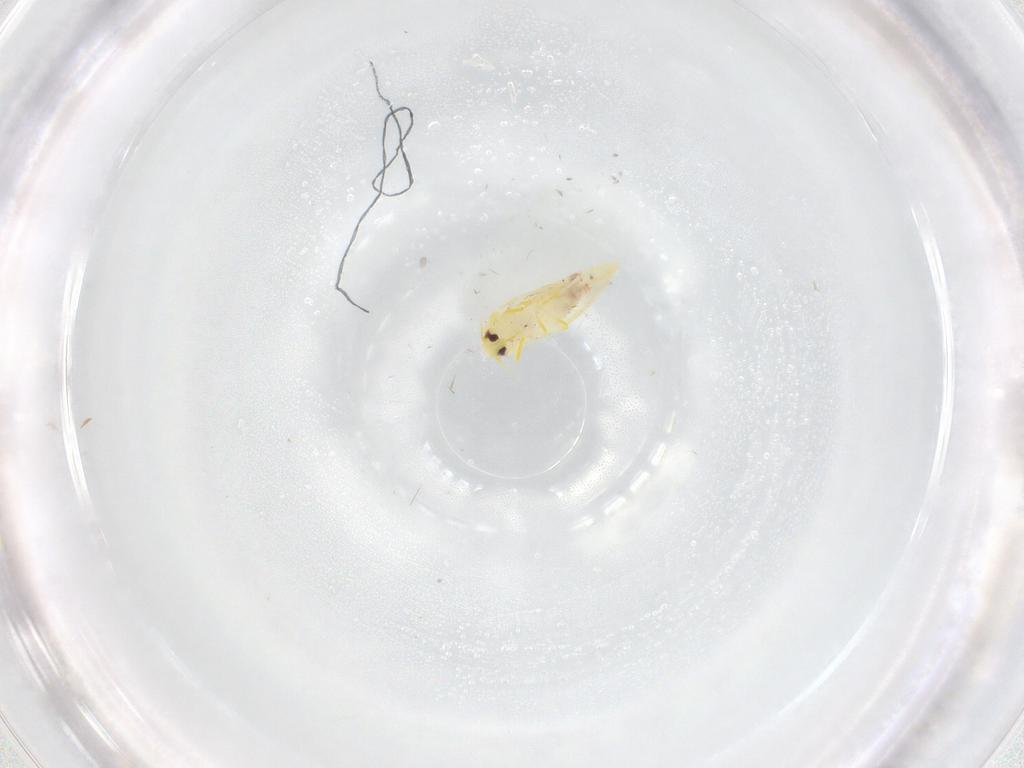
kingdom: Animalia
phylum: Arthropoda
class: Insecta
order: Hemiptera
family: Aleyrodidae
